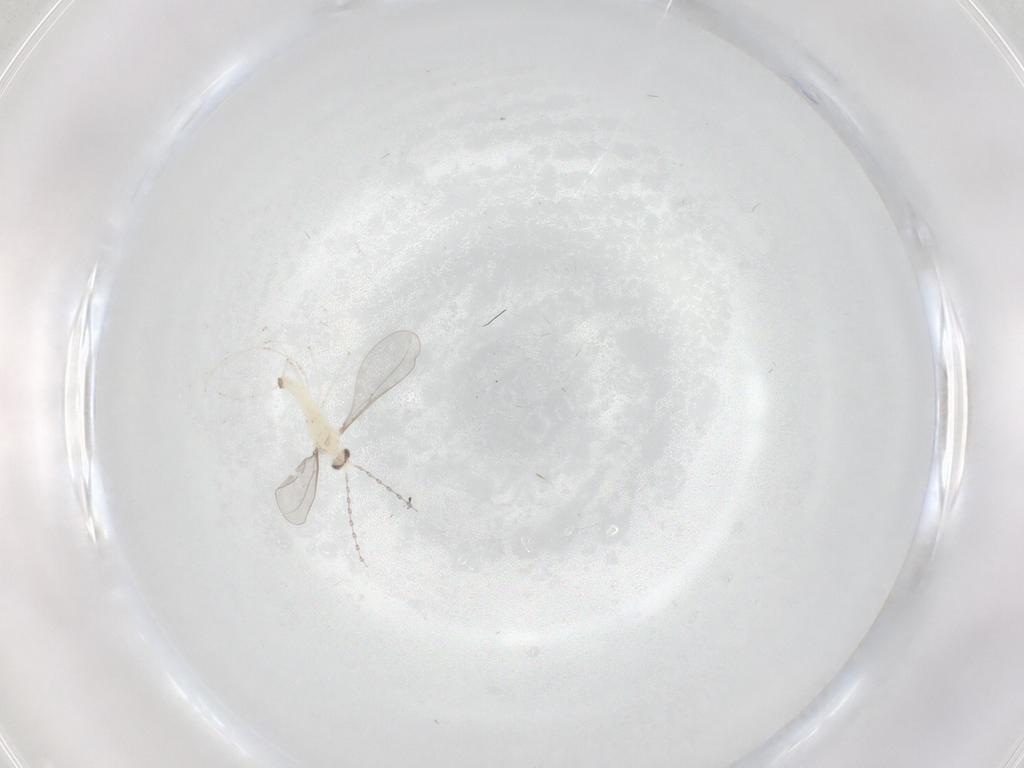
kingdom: Animalia
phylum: Arthropoda
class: Insecta
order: Diptera
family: Cecidomyiidae
